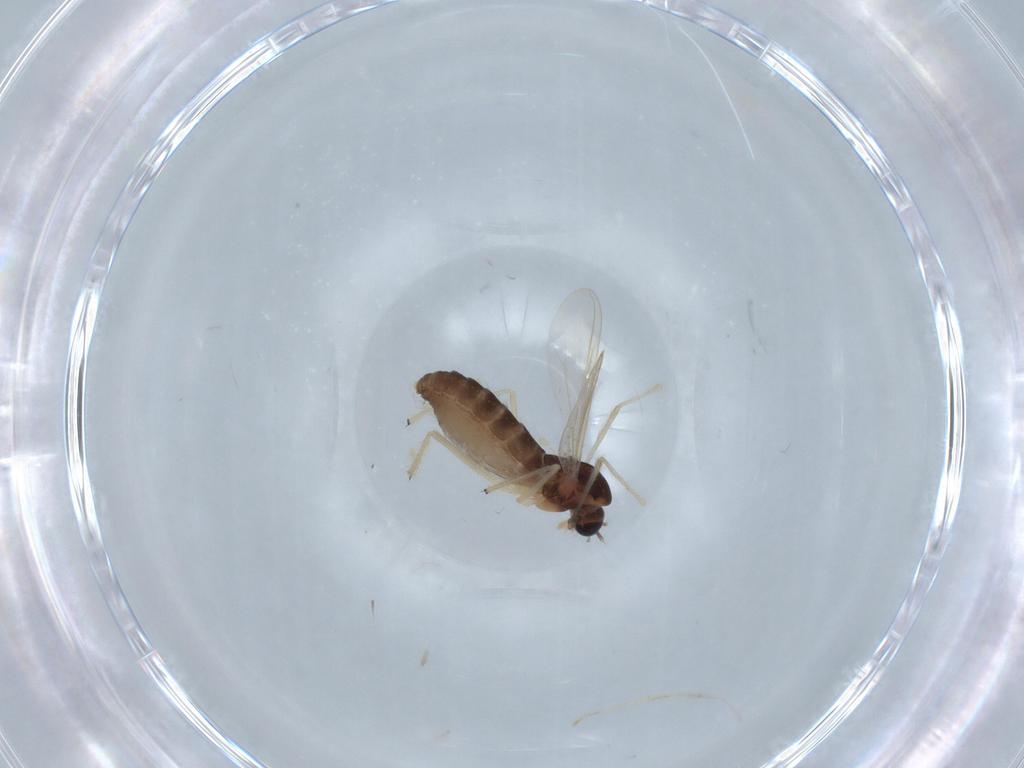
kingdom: Animalia
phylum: Arthropoda
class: Insecta
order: Diptera
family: Chironomidae
